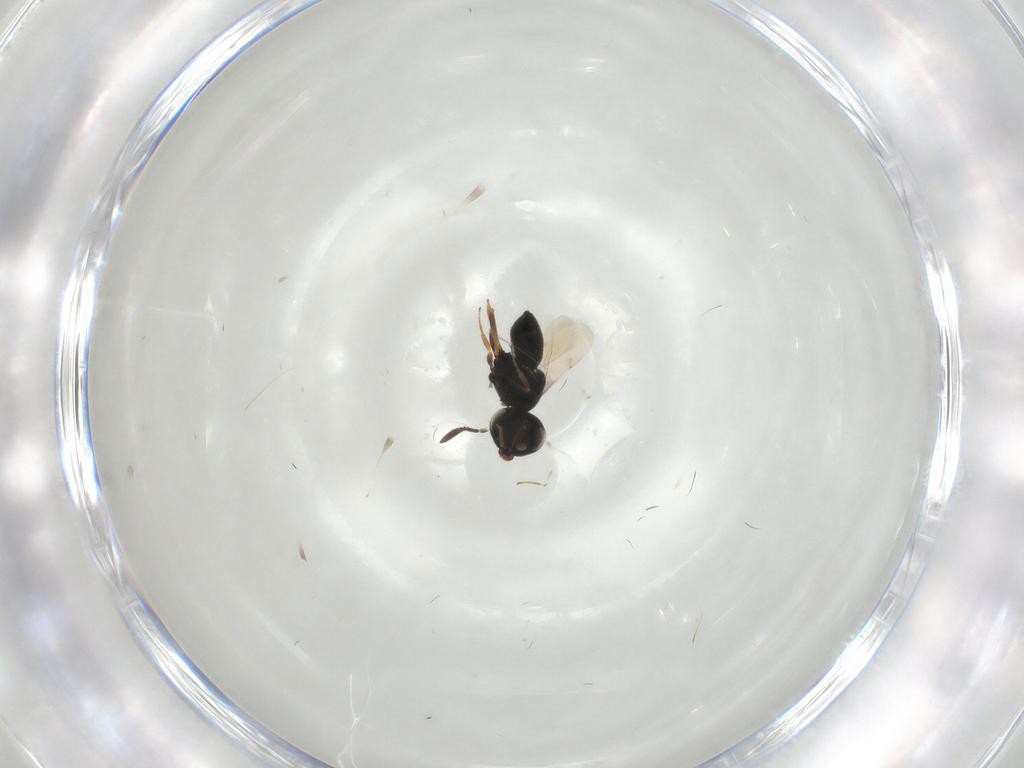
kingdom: Animalia
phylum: Arthropoda
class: Insecta
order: Hymenoptera
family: Scelionidae
